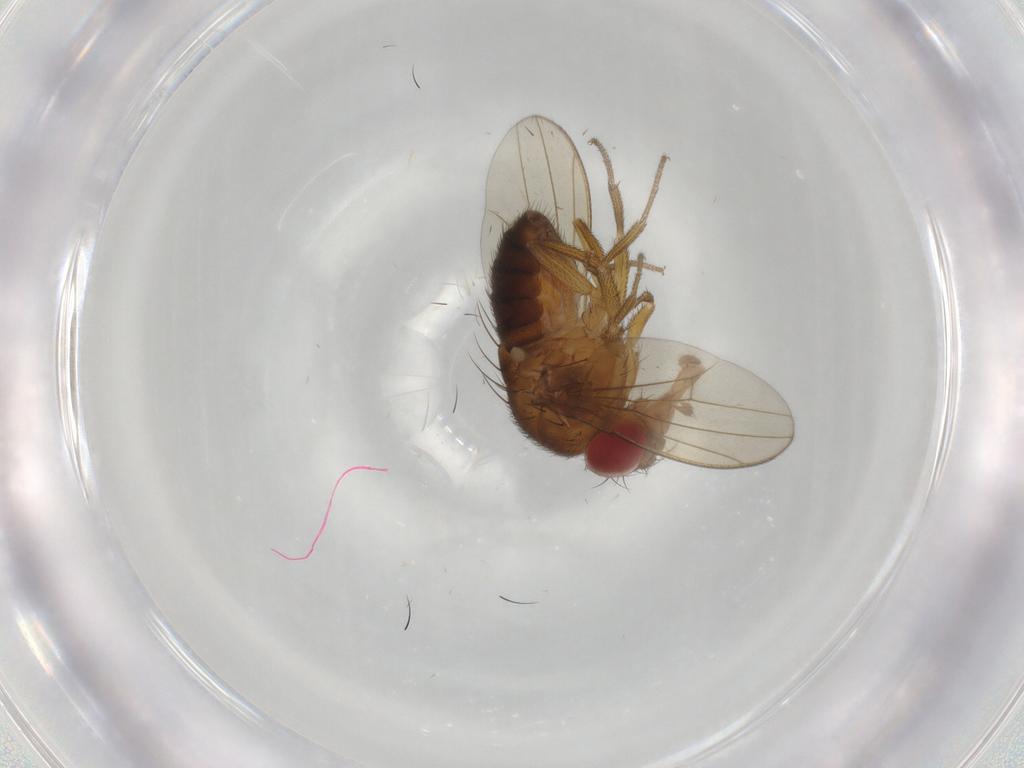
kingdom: Animalia
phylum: Arthropoda
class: Insecta
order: Diptera
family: Drosophilidae
